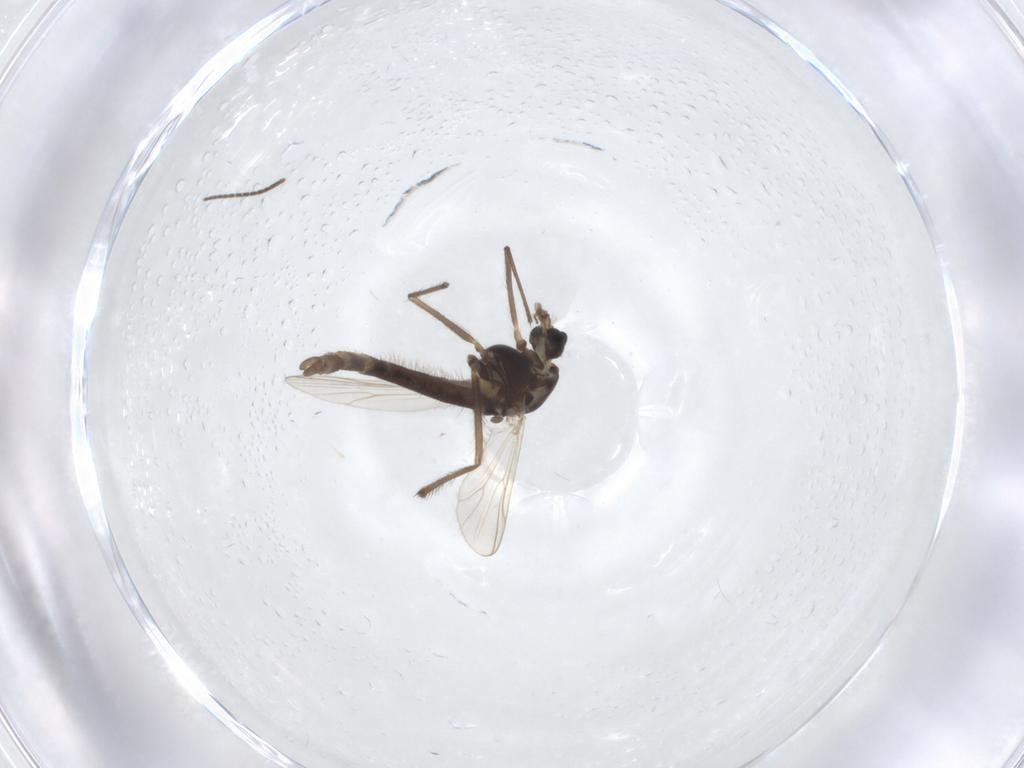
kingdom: Animalia
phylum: Arthropoda
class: Insecta
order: Diptera
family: Chironomidae
